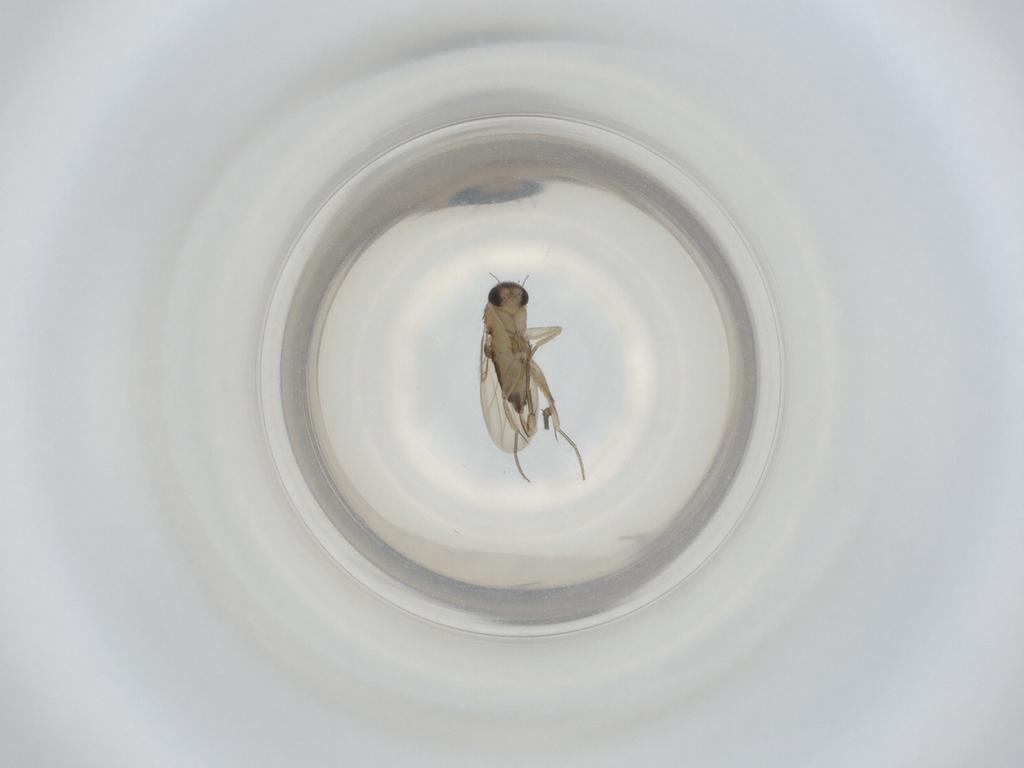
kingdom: Animalia
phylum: Arthropoda
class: Insecta
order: Diptera
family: Phoridae
